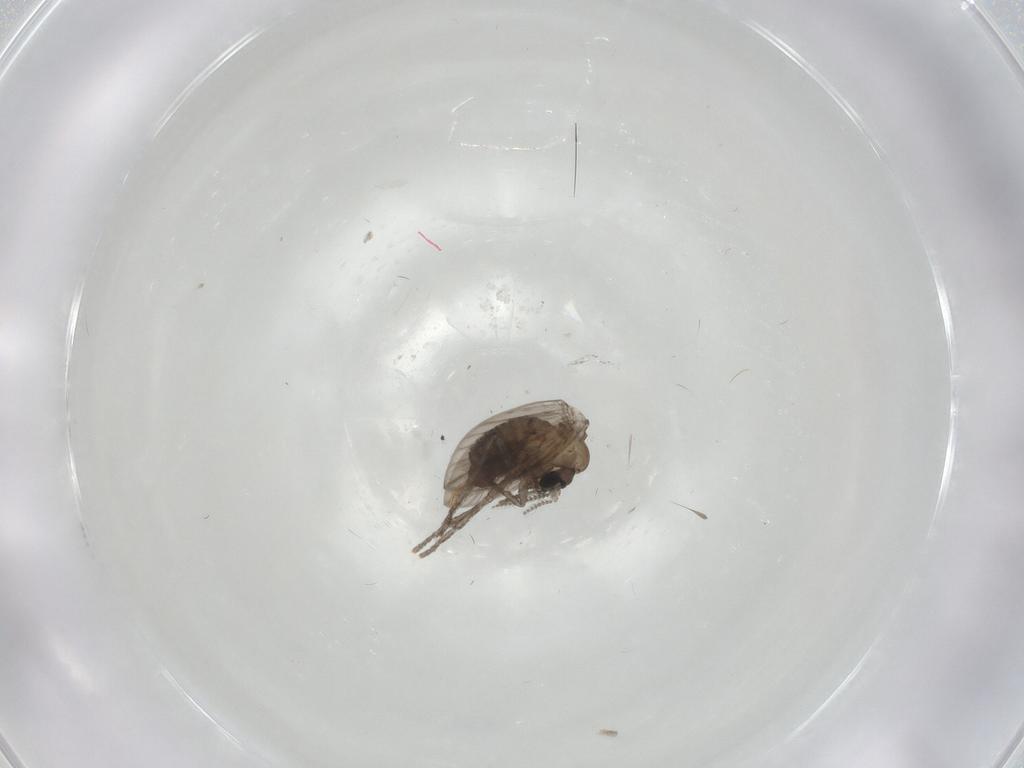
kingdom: Animalia
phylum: Arthropoda
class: Insecta
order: Diptera
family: Psychodidae
